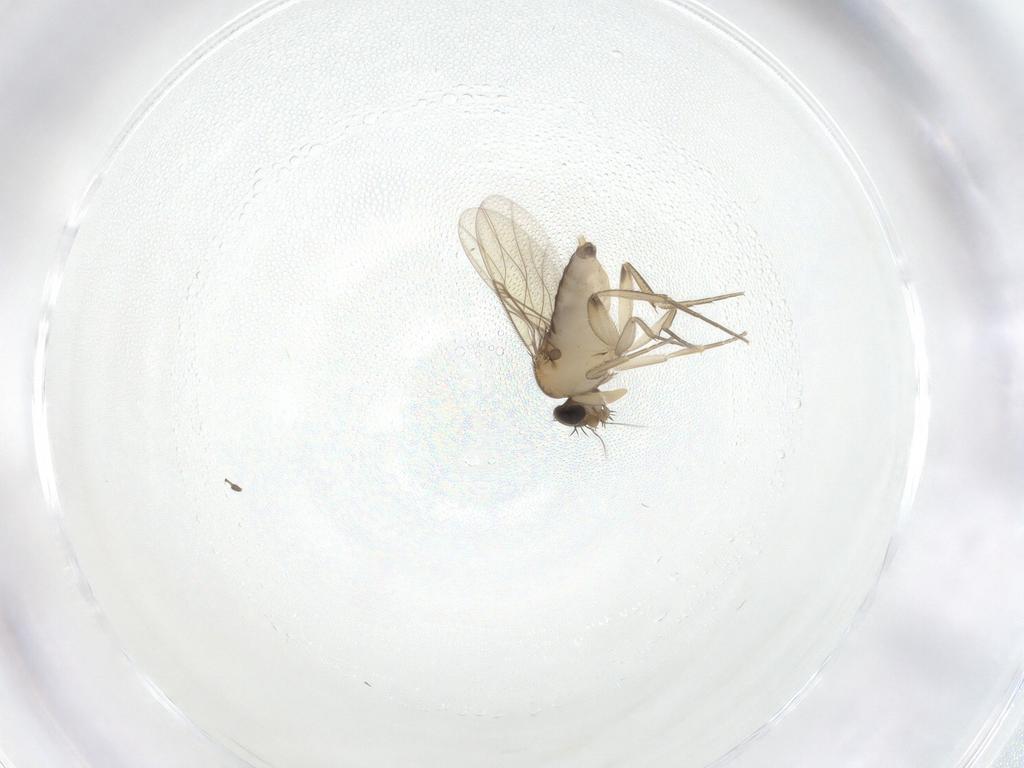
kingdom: Animalia
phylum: Arthropoda
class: Insecta
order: Diptera
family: Phoridae
